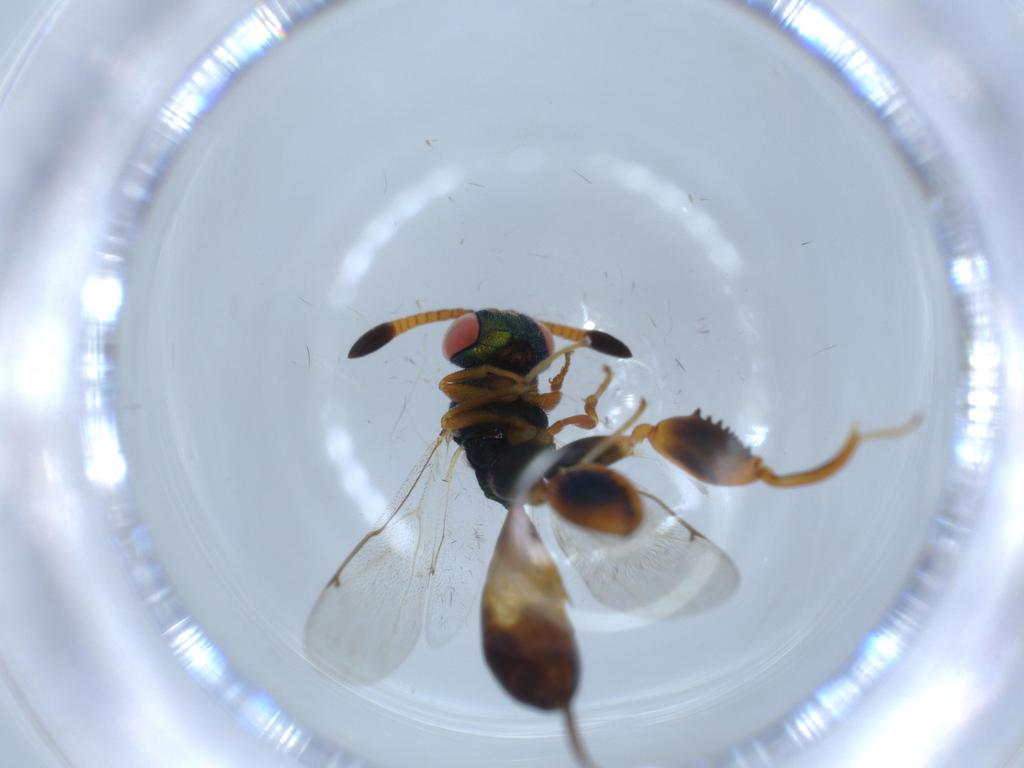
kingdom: Animalia
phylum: Arthropoda
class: Insecta
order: Hymenoptera
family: Torymidae
